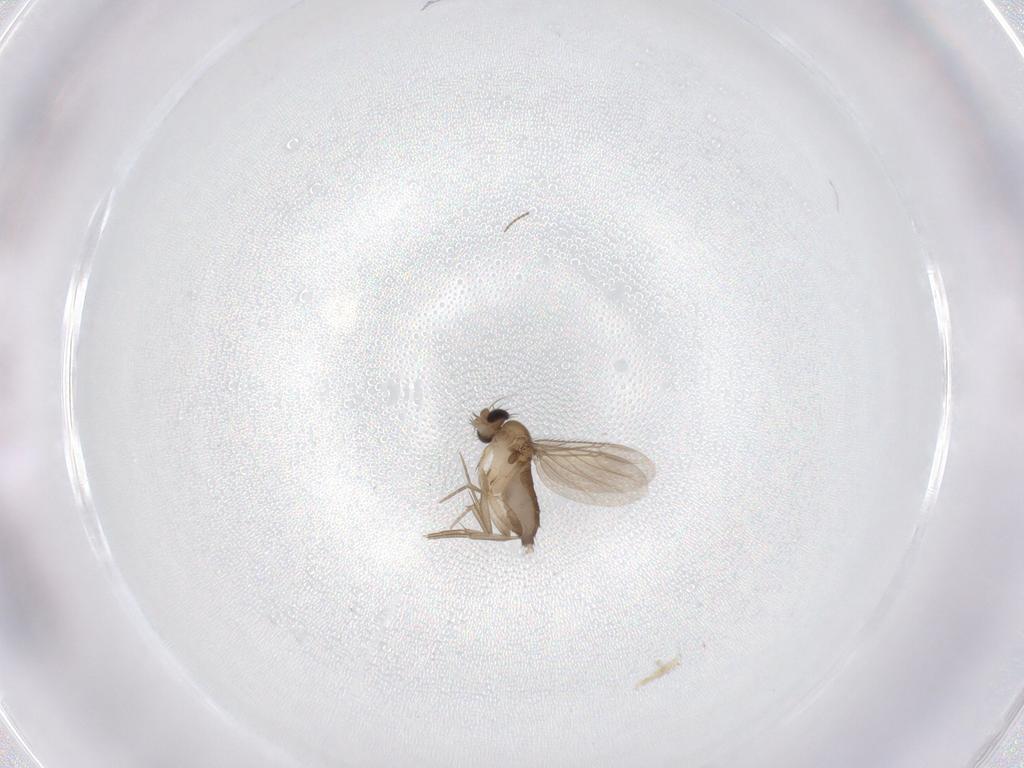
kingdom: Animalia
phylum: Arthropoda
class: Insecta
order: Diptera
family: Phoridae
